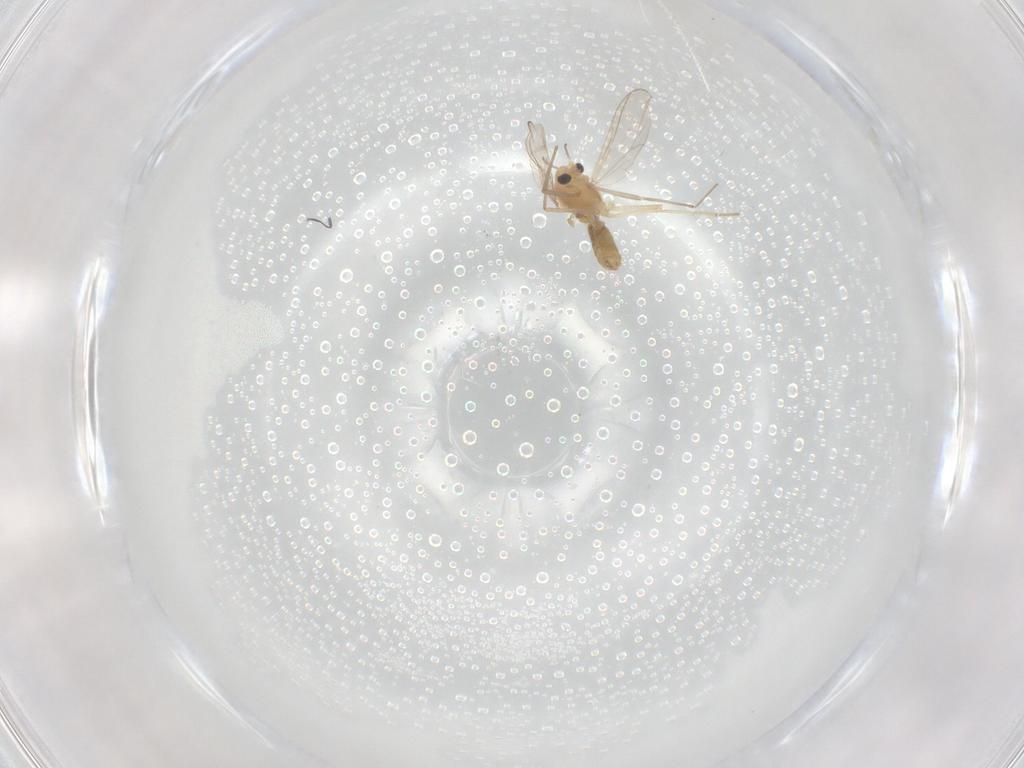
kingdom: Animalia
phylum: Arthropoda
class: Insecta
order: Diptera
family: Chironomidae
